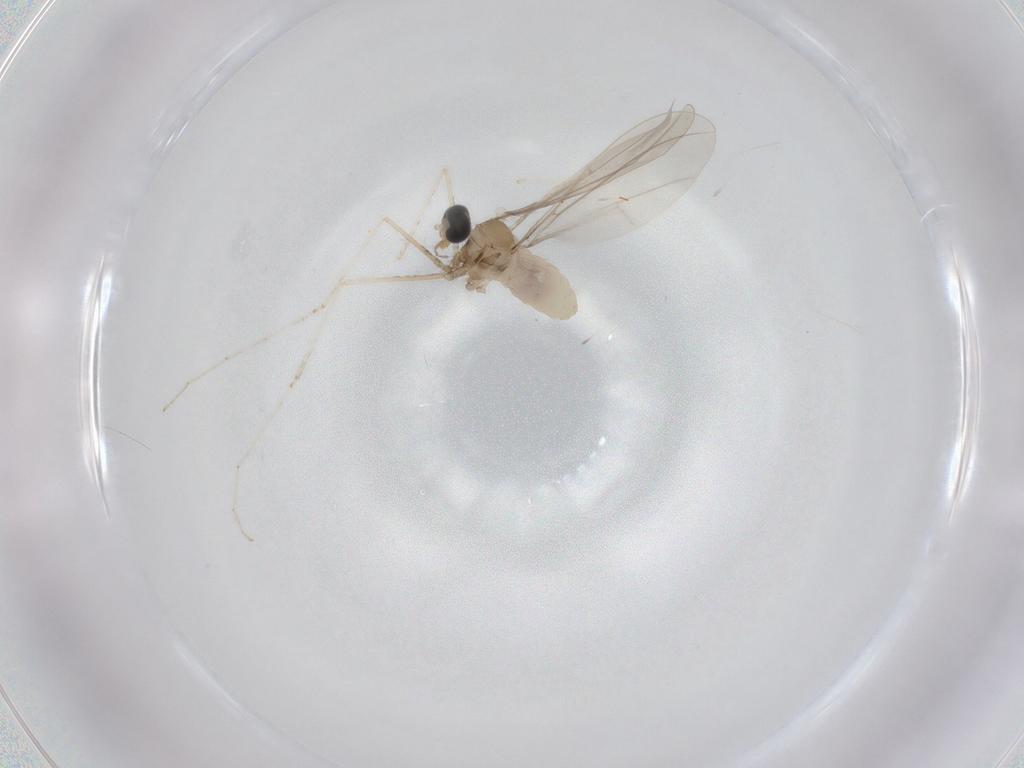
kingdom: Animalia
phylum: Arthropoda
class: Insecta
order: Diptera
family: Cecidomyiidae
